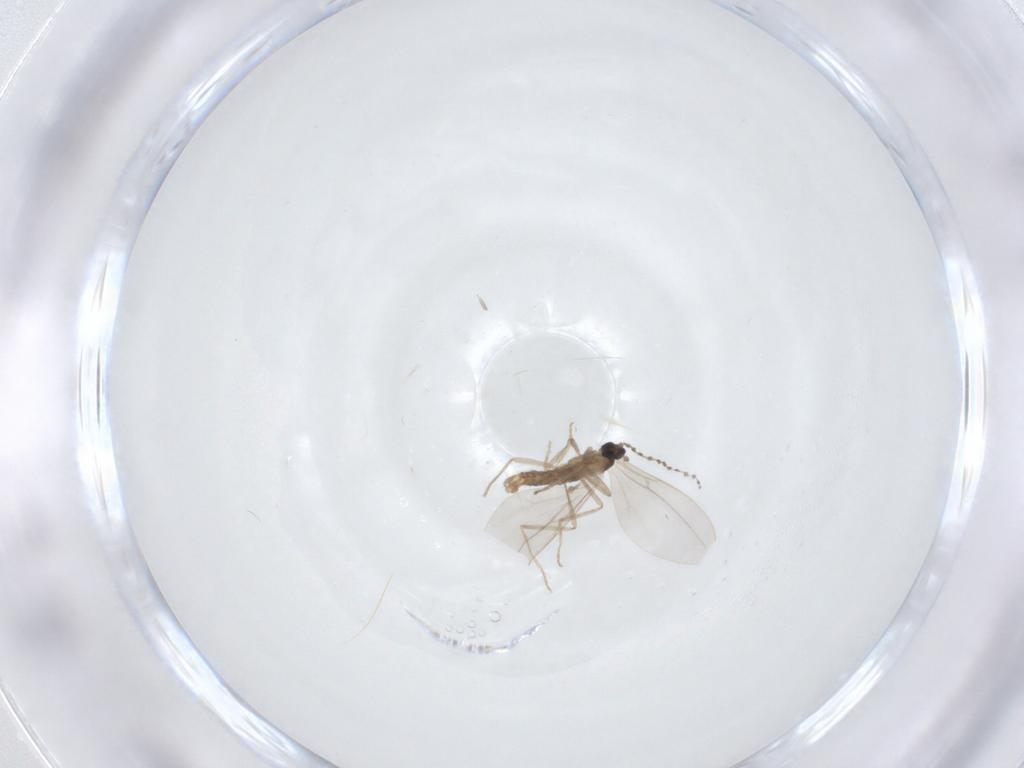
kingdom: Animalia
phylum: Arthropoda
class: Insecta
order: Diptera
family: Cecidomyiidae
